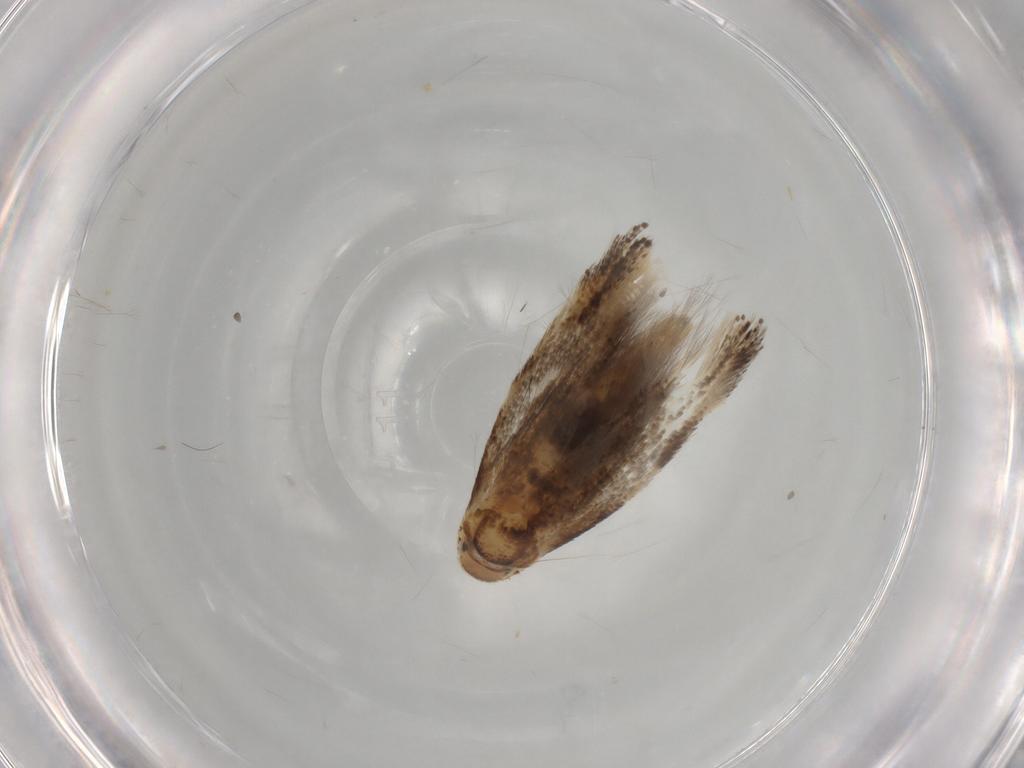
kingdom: Animalia
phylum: Arthropoda
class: Insecta
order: Lepidoptera
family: Elachistidae
